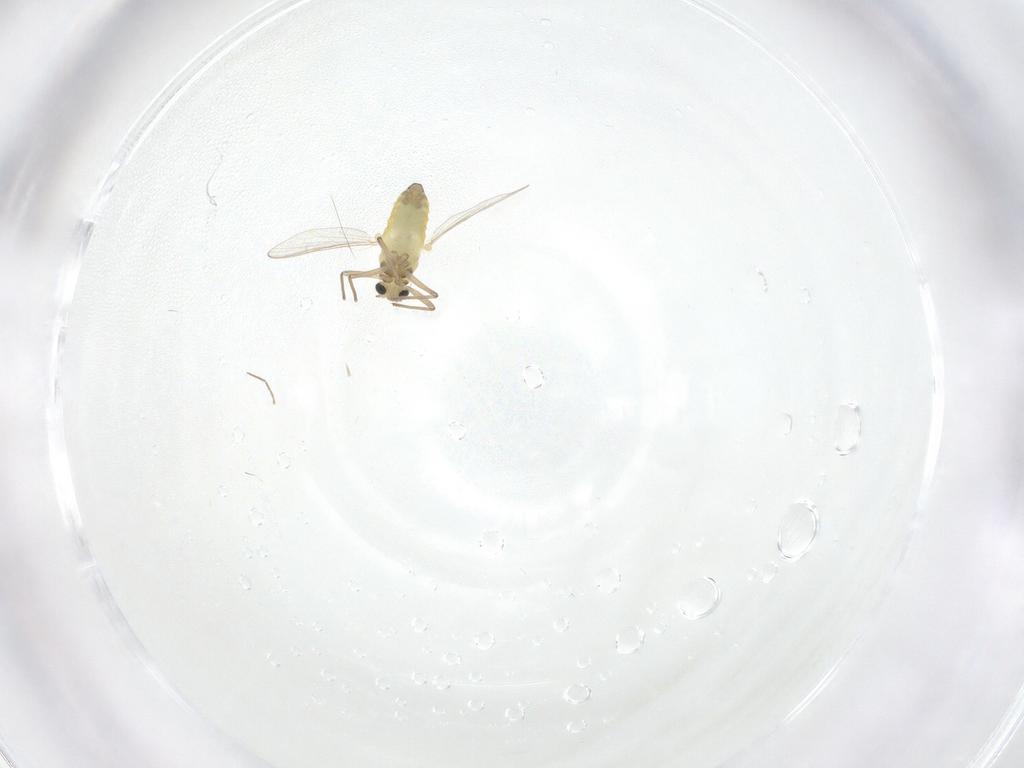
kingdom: Animalia
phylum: Arthropoda
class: Insecta
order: Diptera
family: Chironomidae
